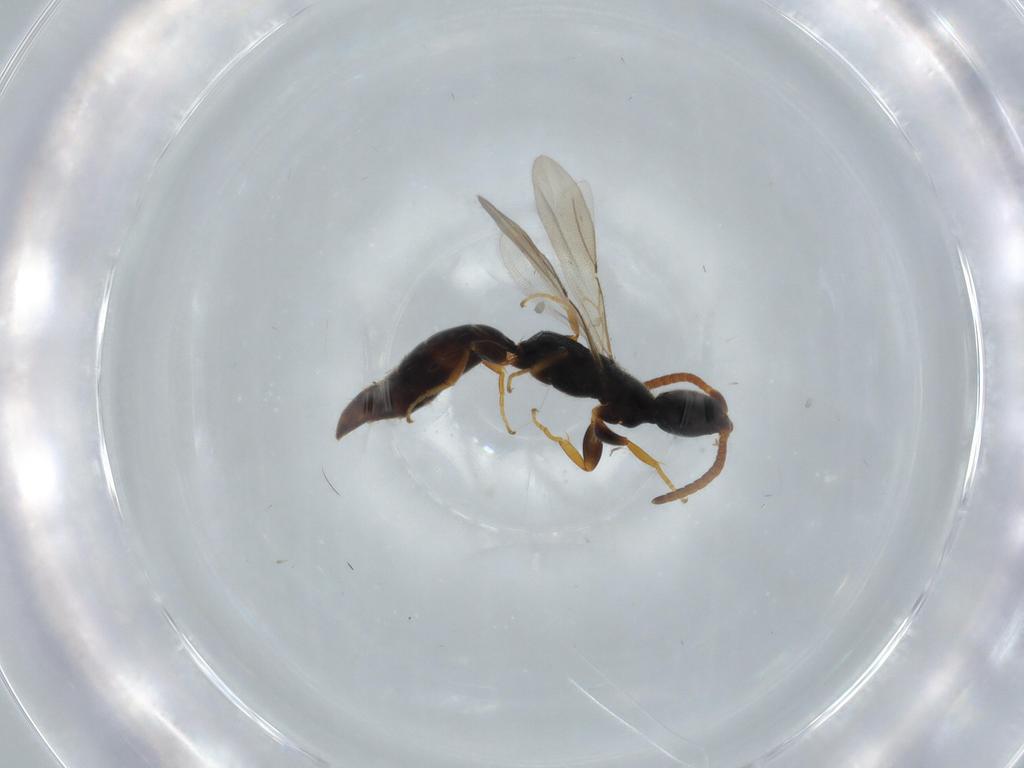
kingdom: Animalia
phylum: Arthropoda
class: Insecta
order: Hymenoptera
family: Bethylidae
